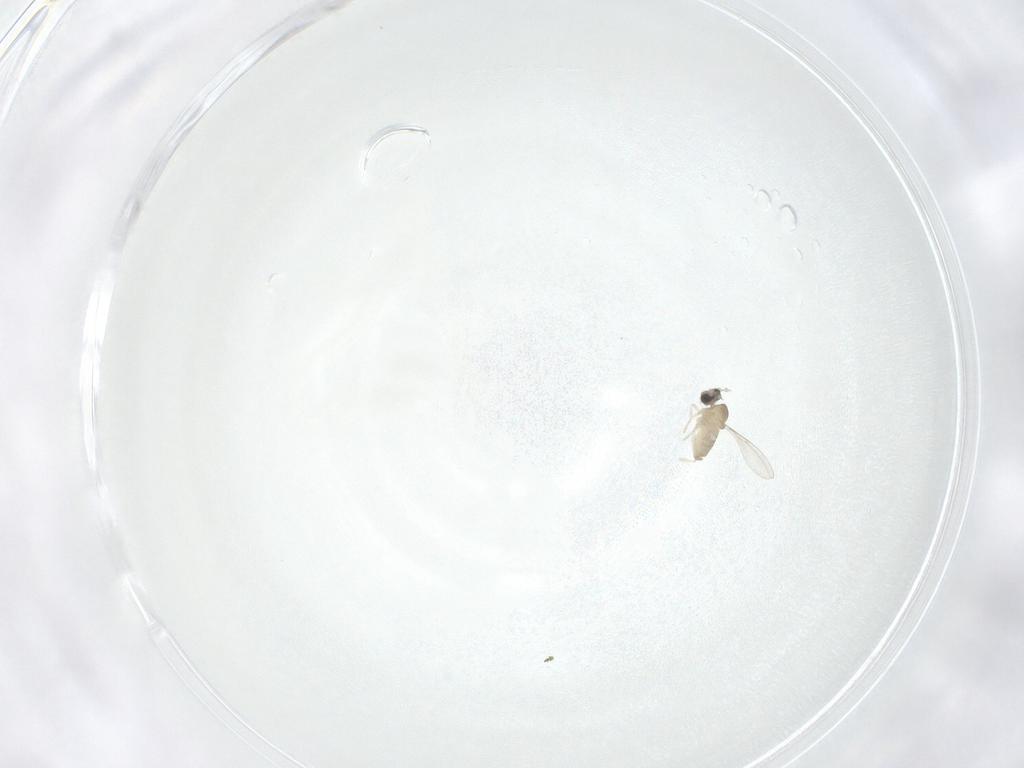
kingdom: Animalia
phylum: Arthropoda
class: Insecta
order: Diptera
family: Cecidomyiidae
